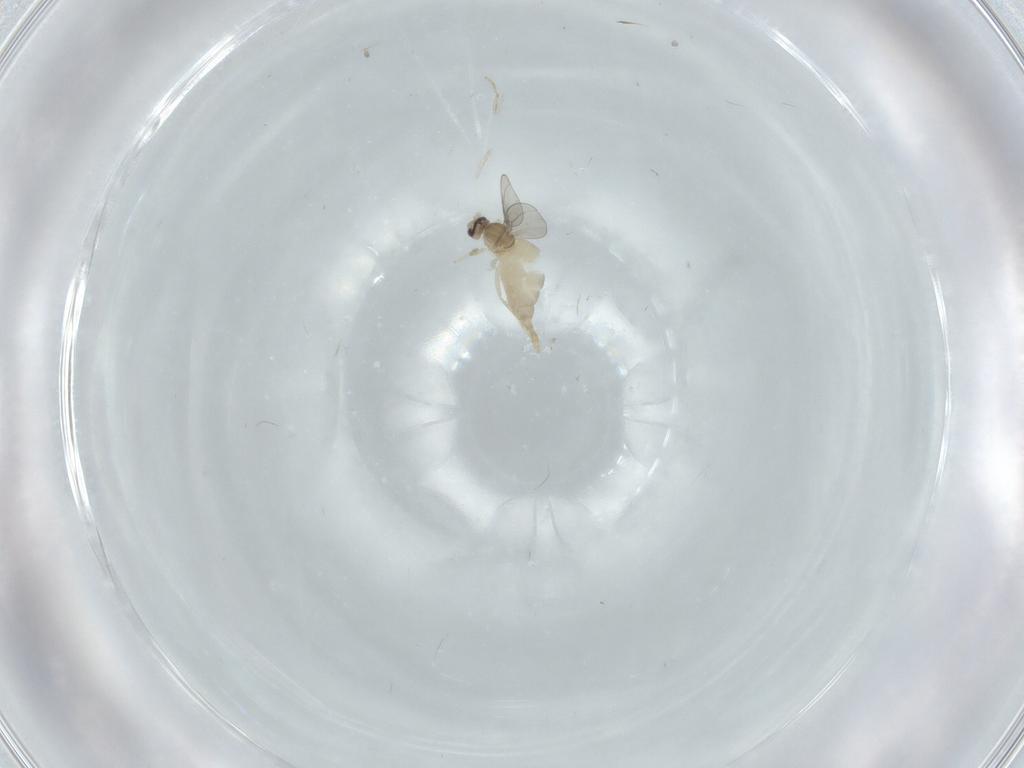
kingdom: Animalia
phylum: Arthropoda
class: Insecta
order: Diptera
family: Cecidomyiidae
